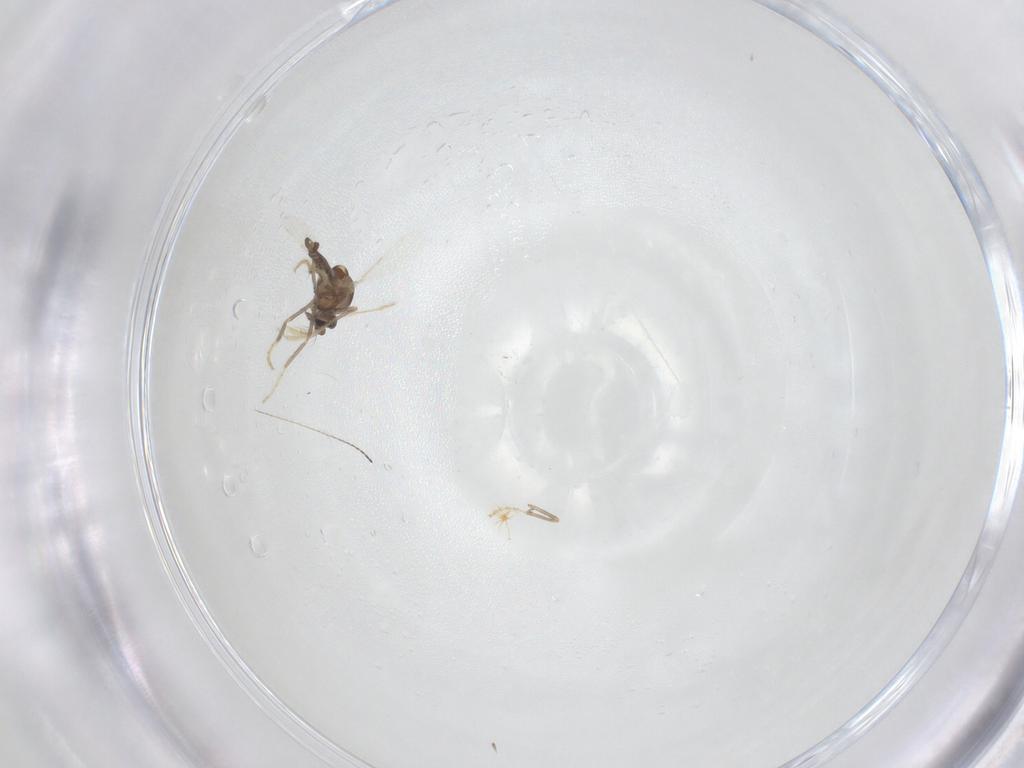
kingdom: Animalia
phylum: Arthropoda
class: Insecta
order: Diptera
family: Ceratopogonidae
